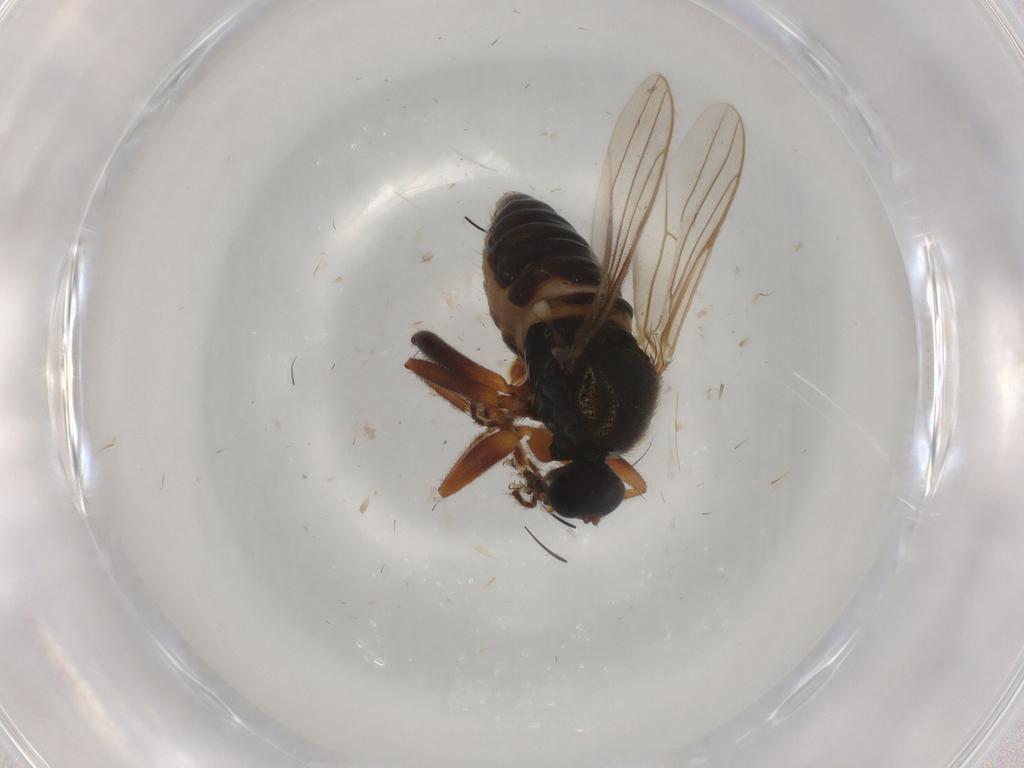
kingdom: Animalia
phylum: Arthropoda
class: Insecta
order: Diptera
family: Hybotidae
